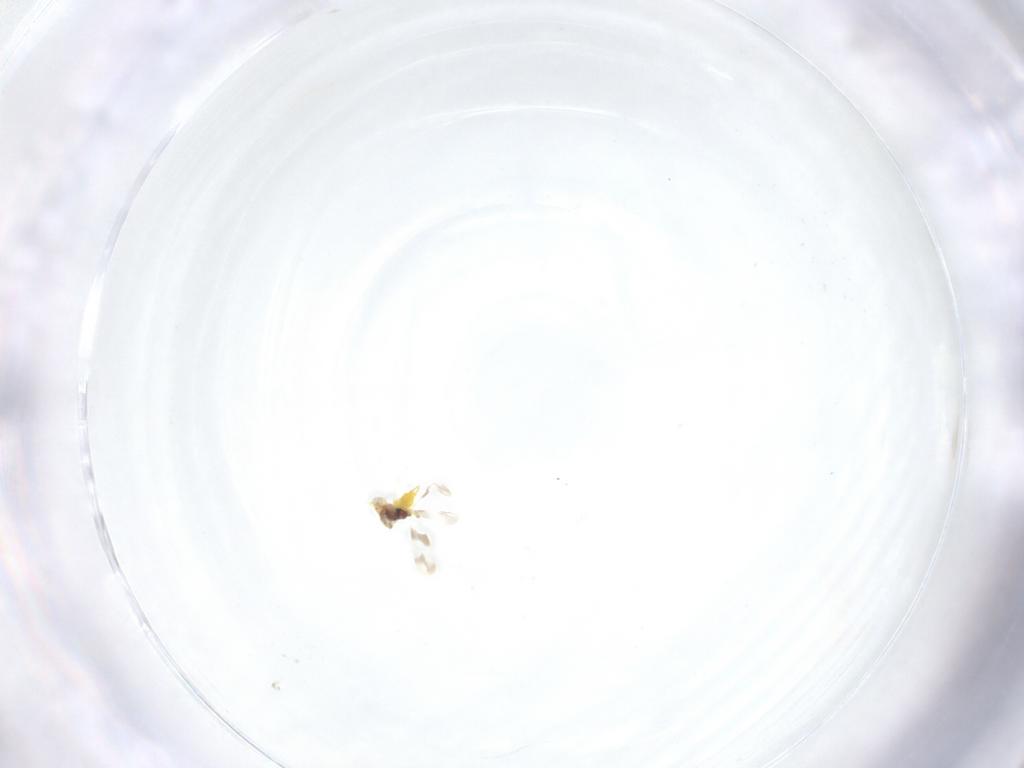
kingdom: Animalia
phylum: Arthropoda
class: Insecta
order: Hemiptera
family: Aleyrodidae
